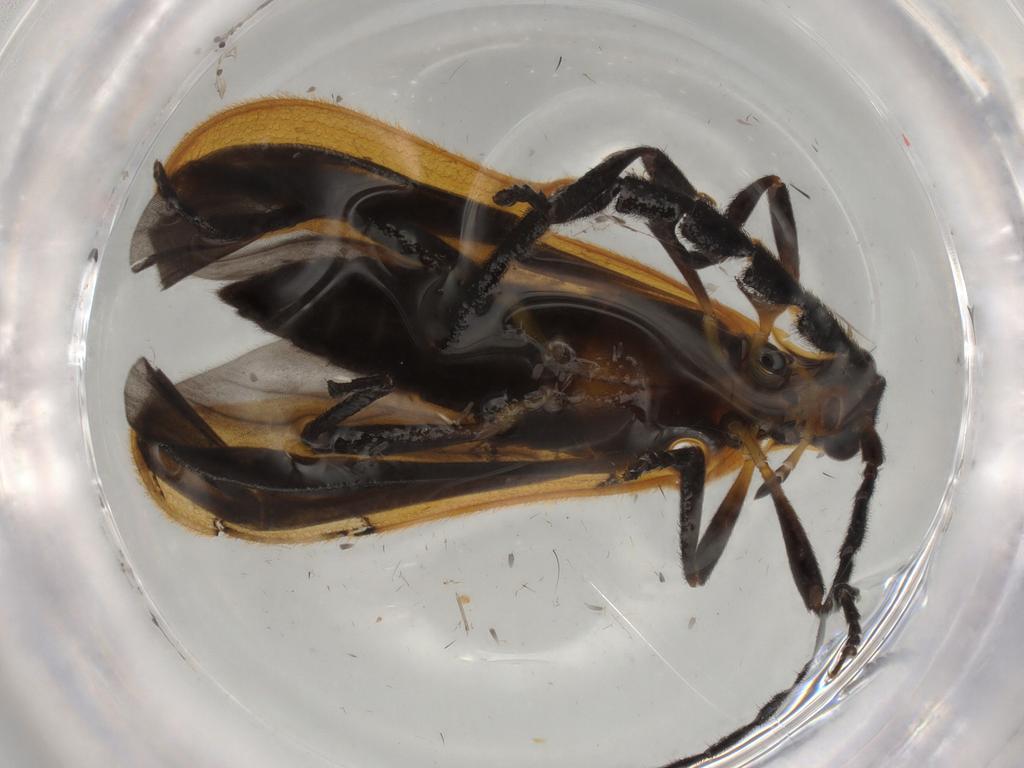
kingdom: Animalia
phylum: Arthropoda
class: Insecta
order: Coleoptera
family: Lycidae
